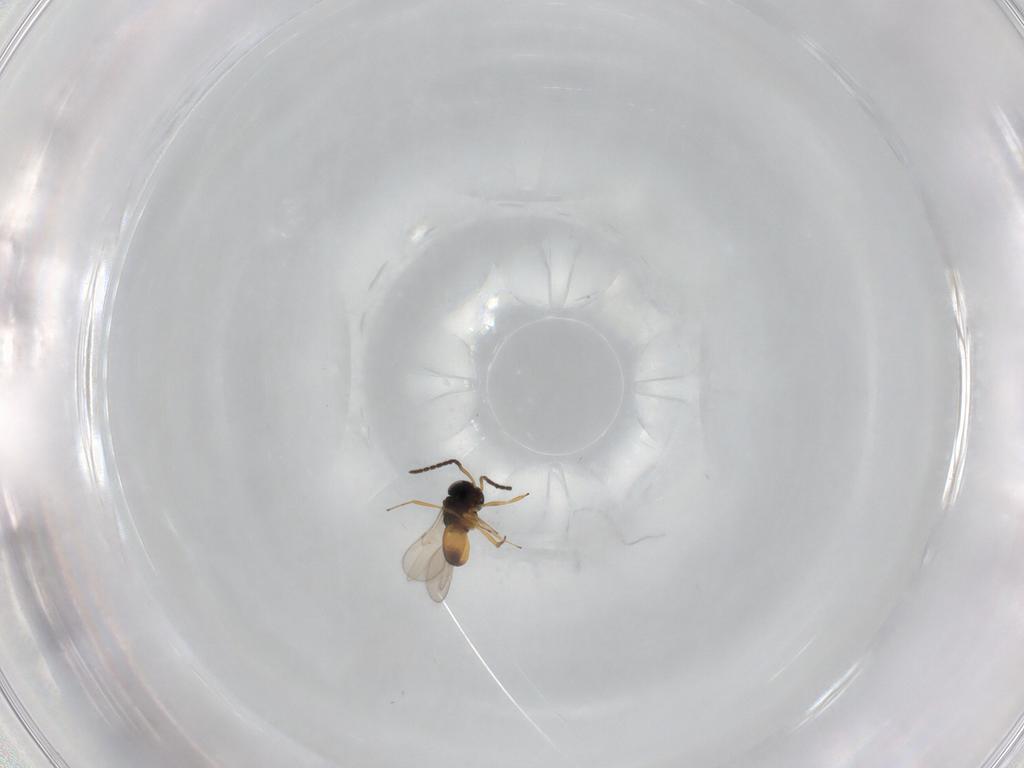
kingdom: Animalia
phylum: Arthropoda
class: Insecta
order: Hymenoptera
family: Scelionidae
